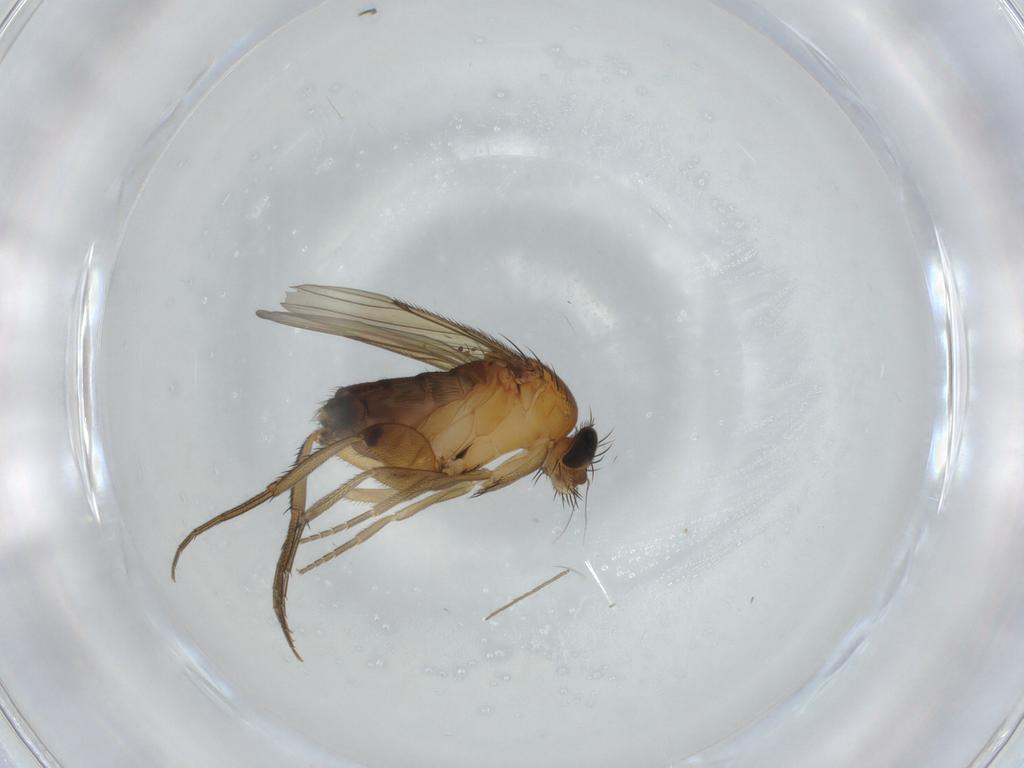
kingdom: Animalia
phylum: Arthropoda
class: Insecta
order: Diptera
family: Phoridae
